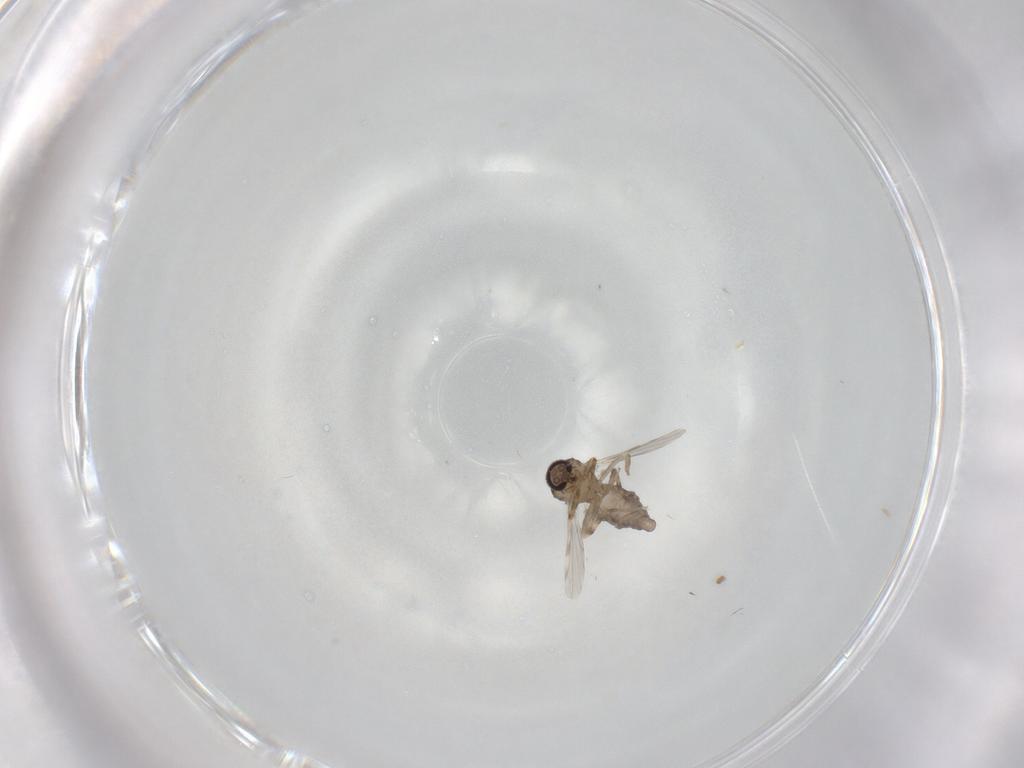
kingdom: Animalia
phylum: Arthropoda
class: Insecta
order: Diptera
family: Ceratopogonidae
